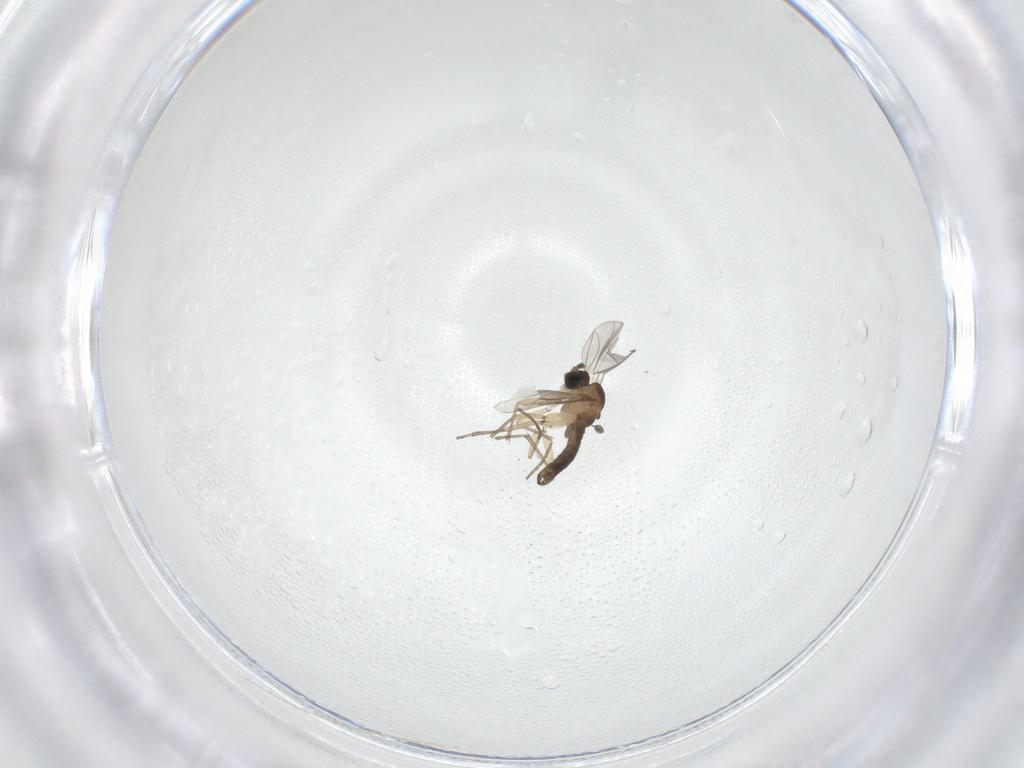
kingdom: Animalia
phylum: Arthropoda
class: Insecta
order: Diptera
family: Sciaridae
